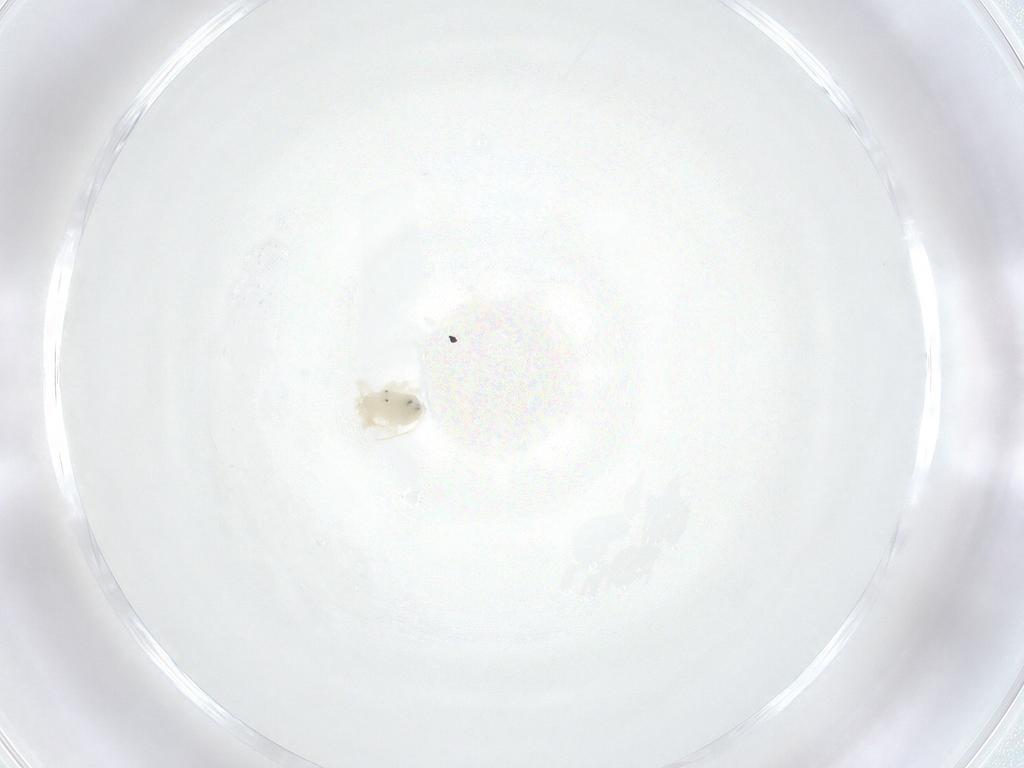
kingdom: Animalia
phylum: Arthropoda
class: Arachnida
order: Trombidiformes
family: Anystidae
